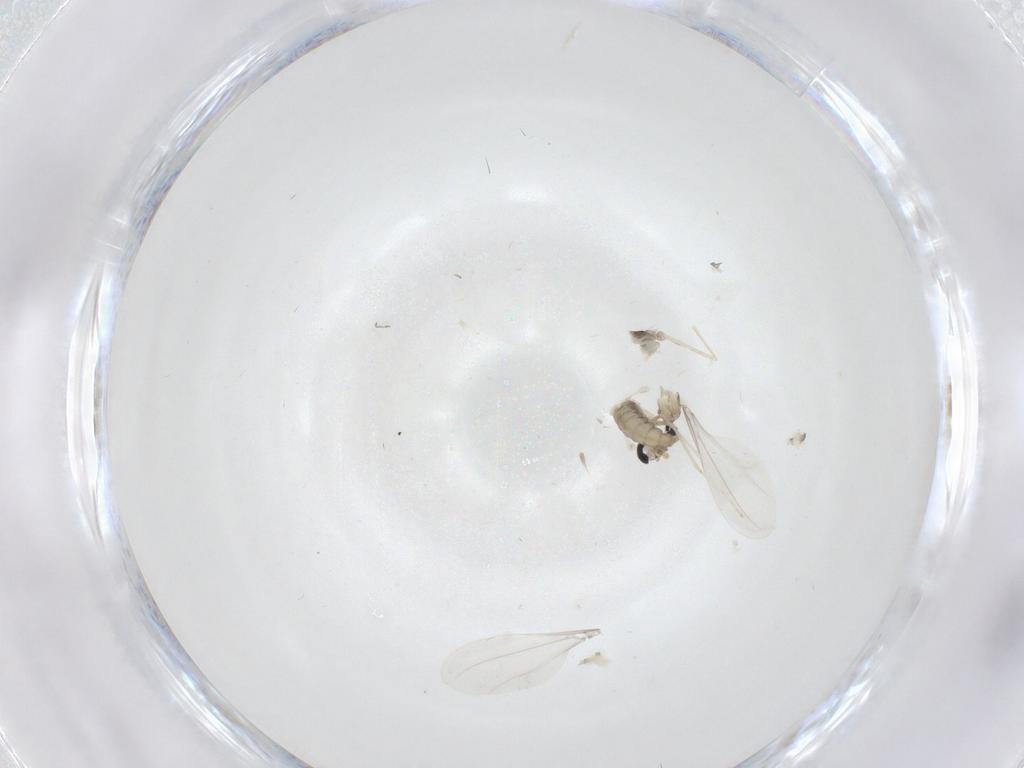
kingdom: Animalia
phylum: Arthropoda
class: Insecta
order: Diptera
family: Cecidomyiidae
